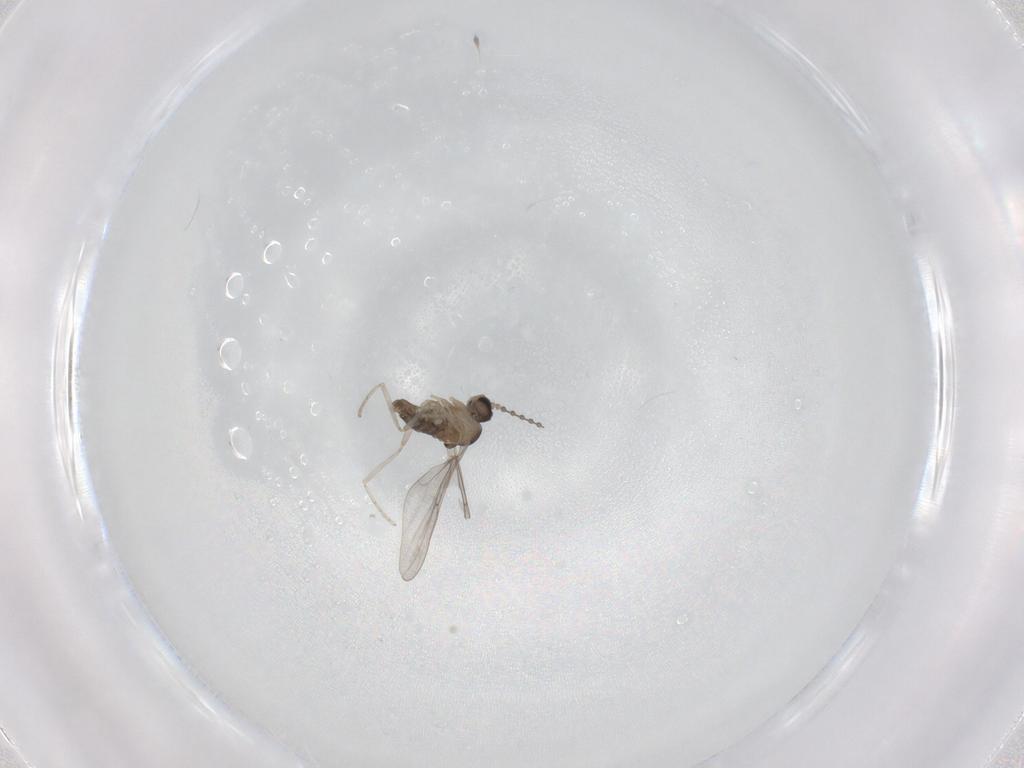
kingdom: Animalia
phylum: Arthropoda
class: Insecta
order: Diptera
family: Cecidomyiidae
